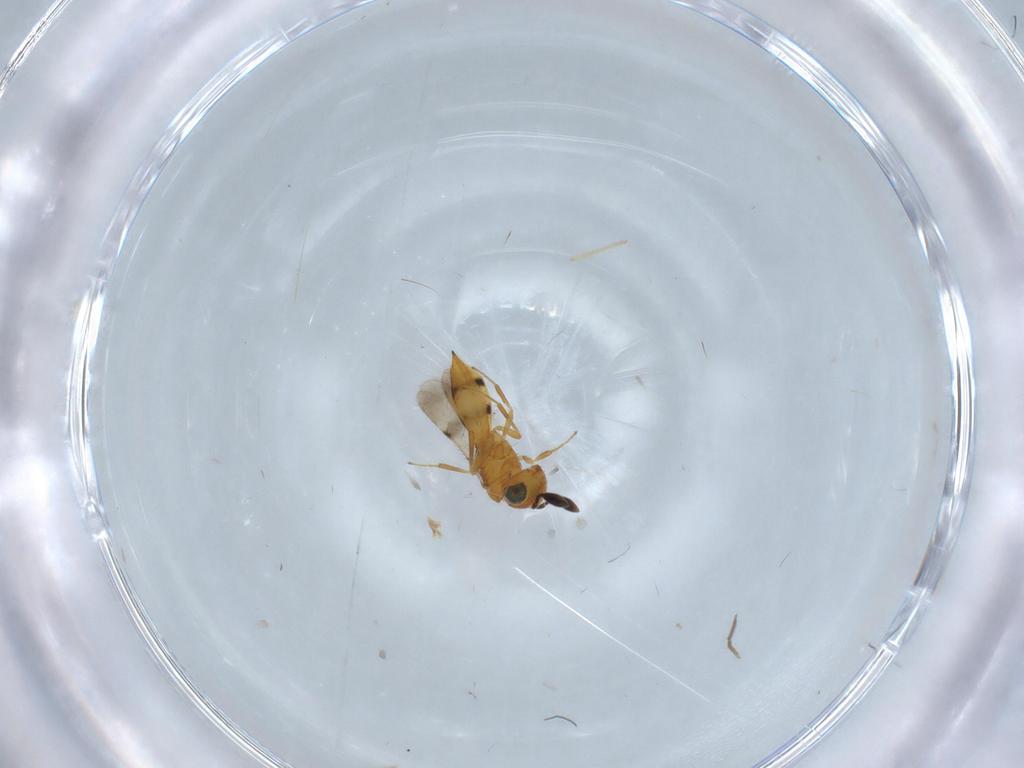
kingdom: Animalia
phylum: Arthropoda
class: Insecta
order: Hymenoptera
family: Scelionidae
